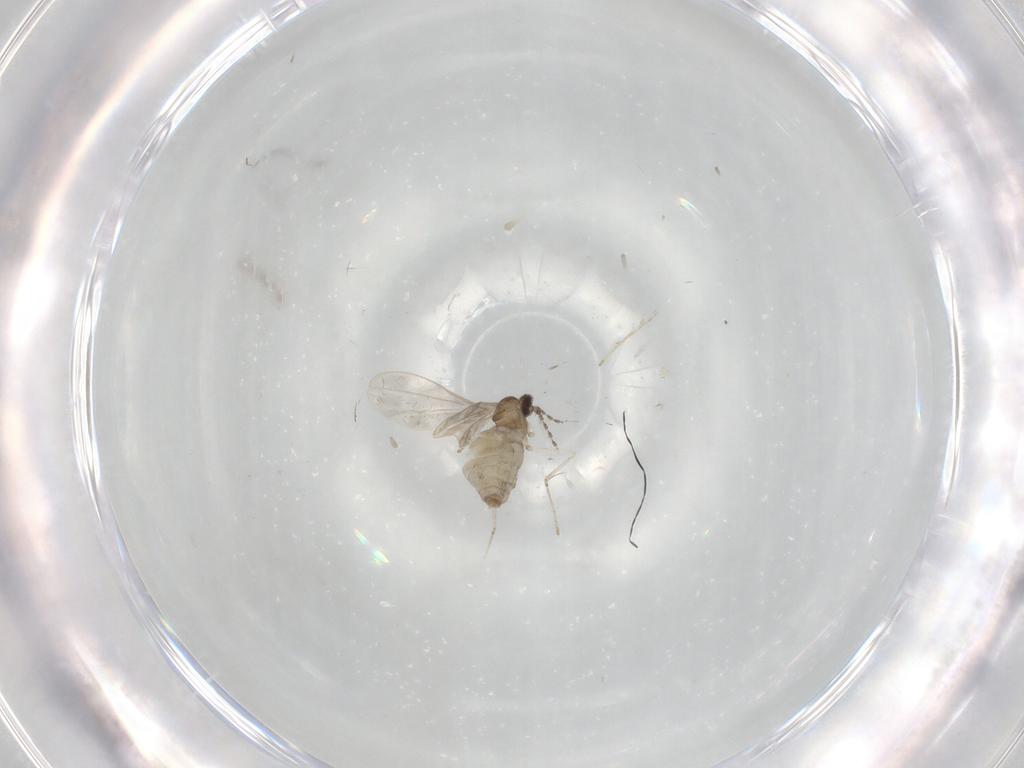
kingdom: Animalia
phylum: Arthropoda
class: Insecta
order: Diptera
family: Cecidomyiidae
